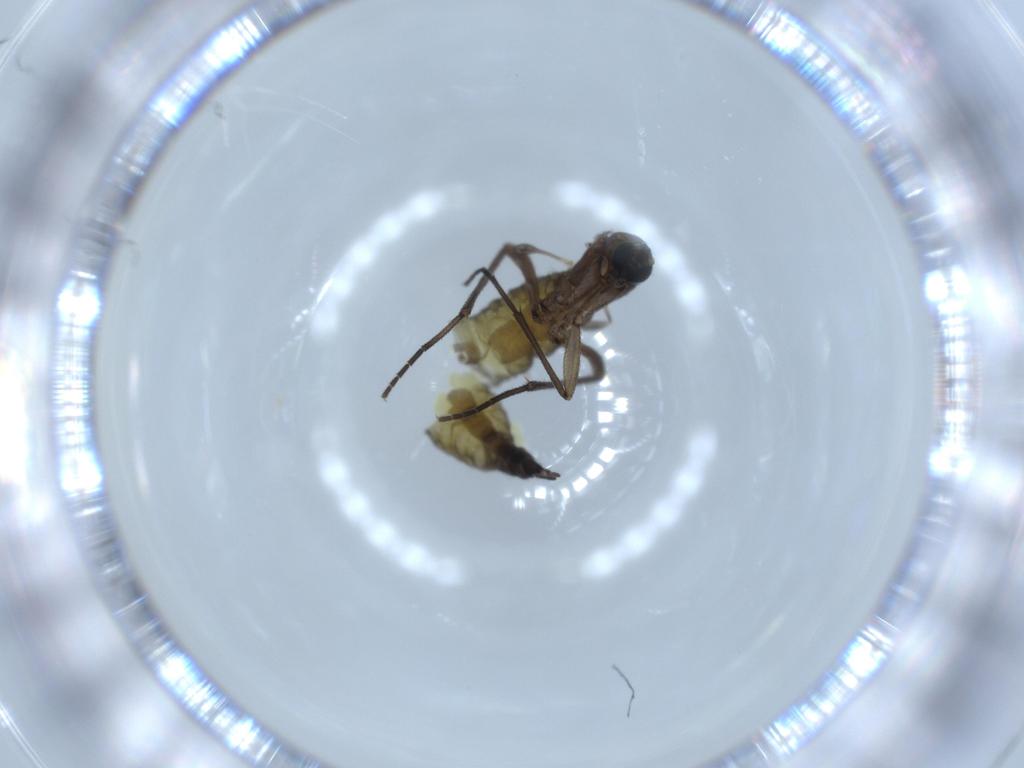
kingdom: Animalia
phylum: Arthropoda
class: Insecta
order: Diptera
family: Sciaridae
